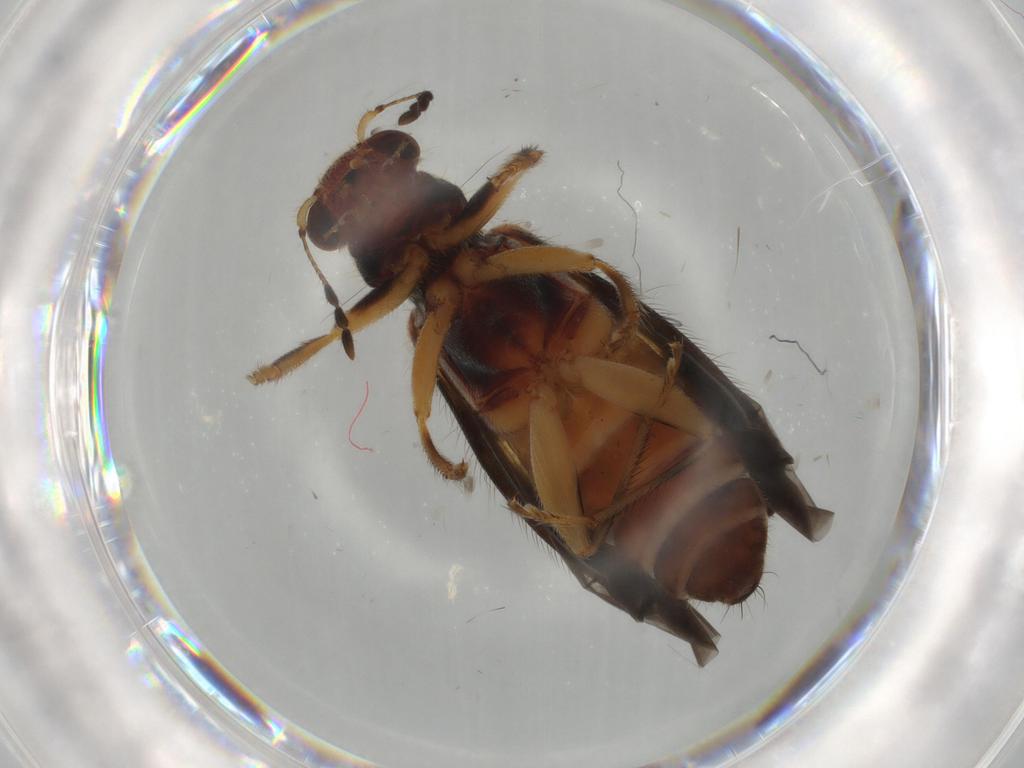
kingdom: Animalia
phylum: Arthropoda
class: Insecta
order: Coleoptera
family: Cleridae
